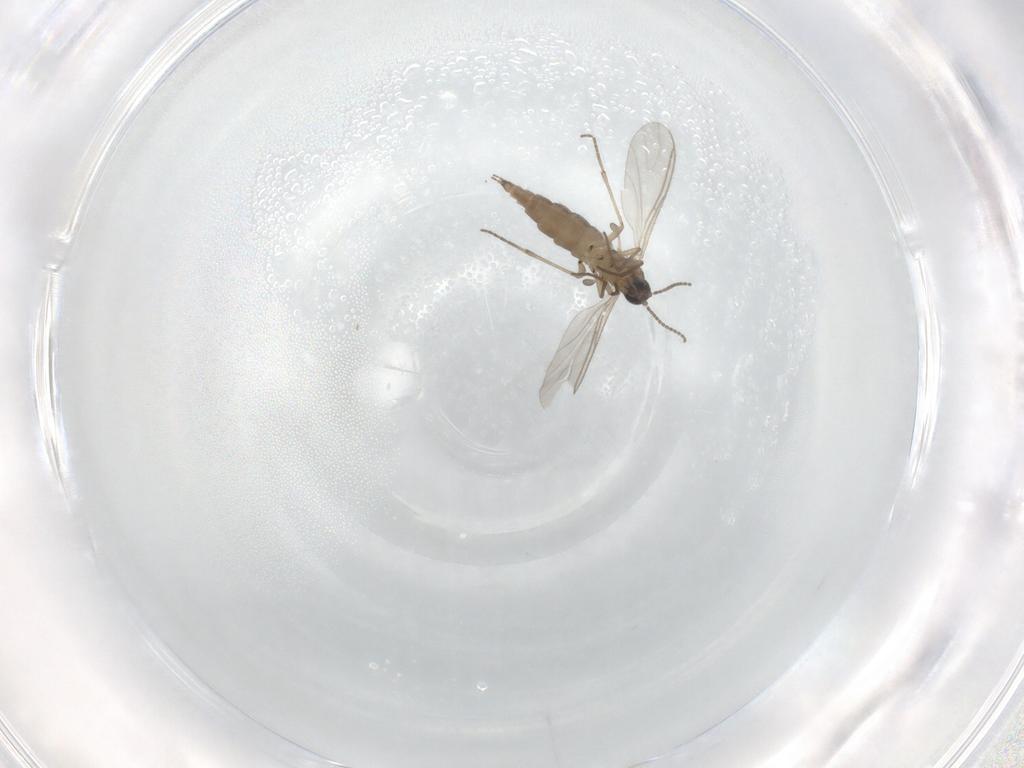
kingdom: Animalia
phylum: Arthropoda
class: Insecta
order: Diptera
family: Sciaridae
